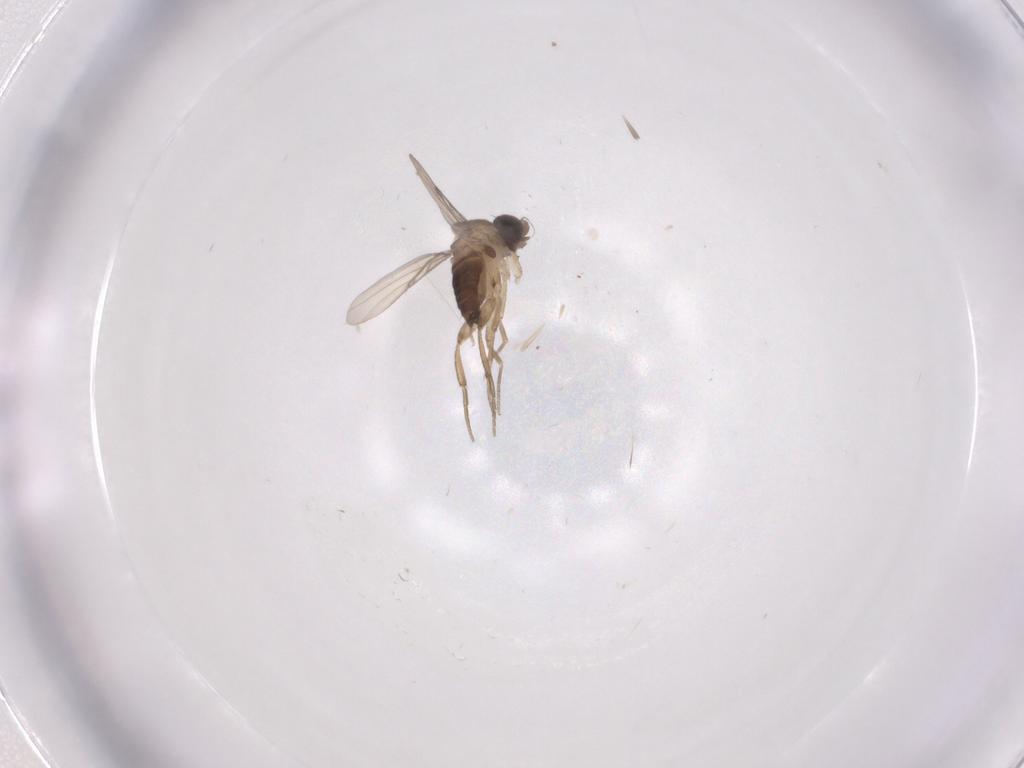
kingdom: Animalia
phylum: Arthropoda
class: Insecta
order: Diptera
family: Phoridae
